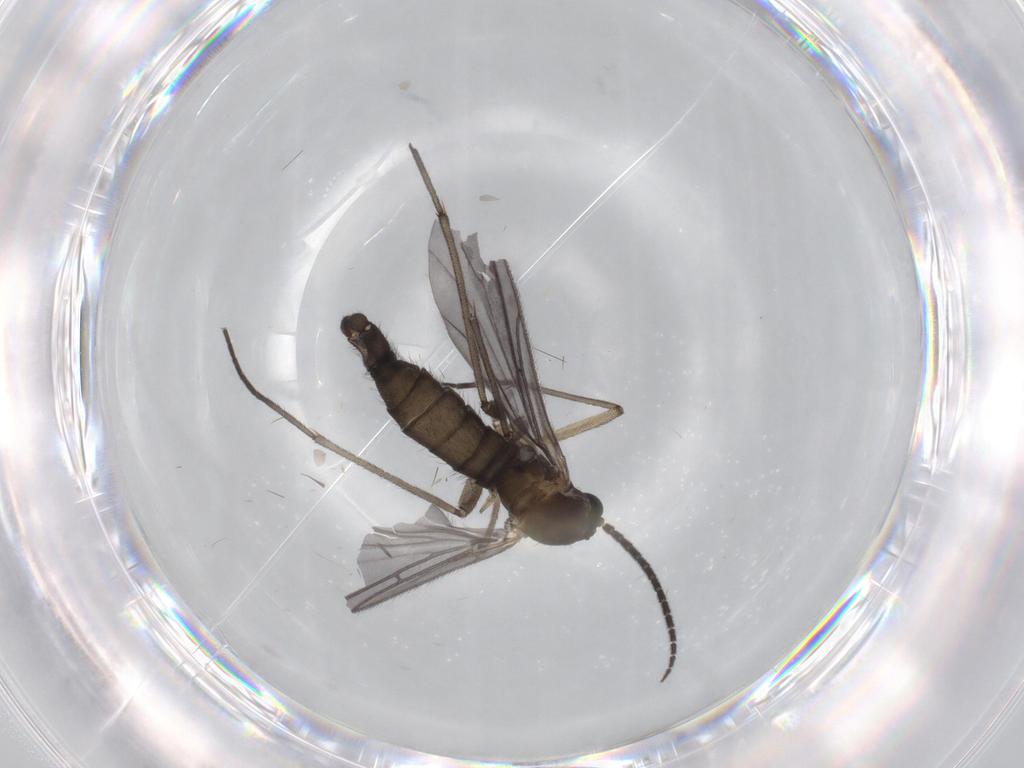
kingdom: Animalia
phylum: Arthropoda
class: Insecta
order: Diptera
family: Sciaridae
